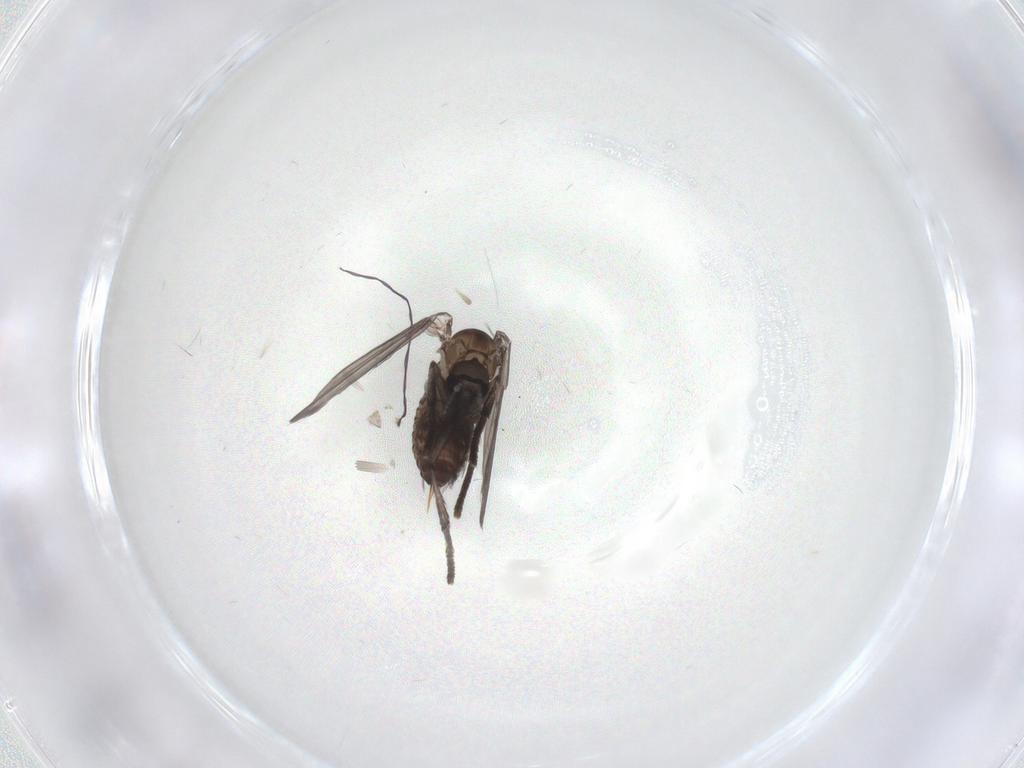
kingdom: Animalia
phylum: Arthropoda
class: Insecta
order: Diptera
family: Psychodidae
